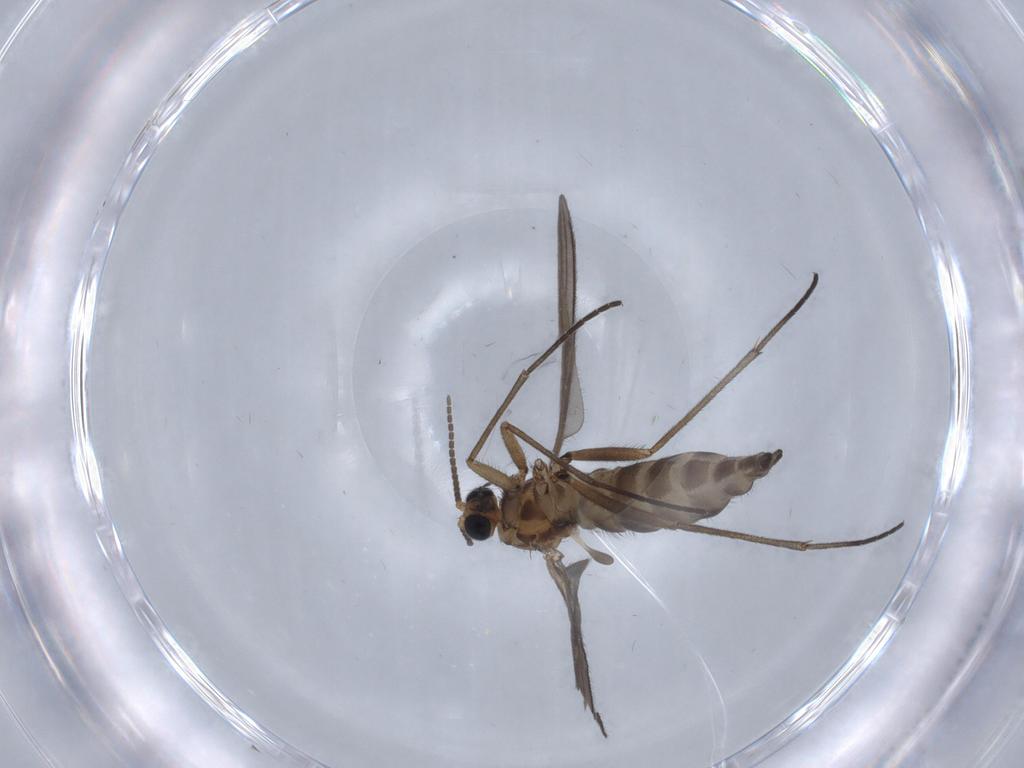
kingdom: Animalia
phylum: Arthropoda
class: Insecta
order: Diptera
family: Sciaridae
